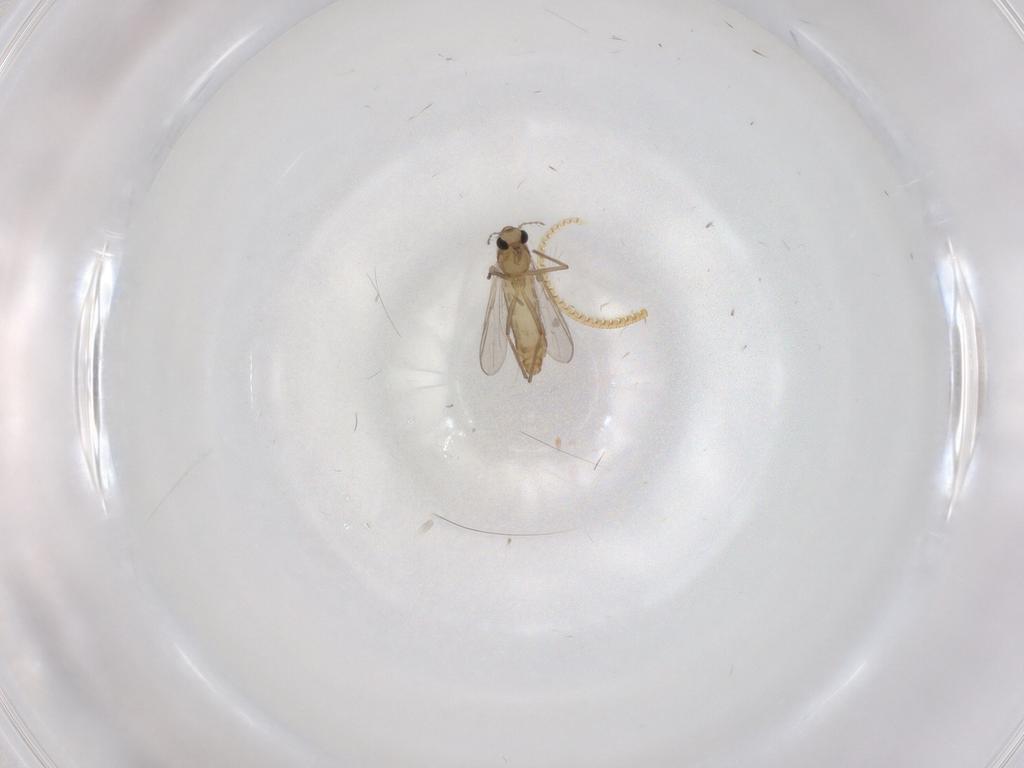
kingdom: Animalia
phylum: Arthropoda
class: Insecta
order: Diptera
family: Chironomidae
